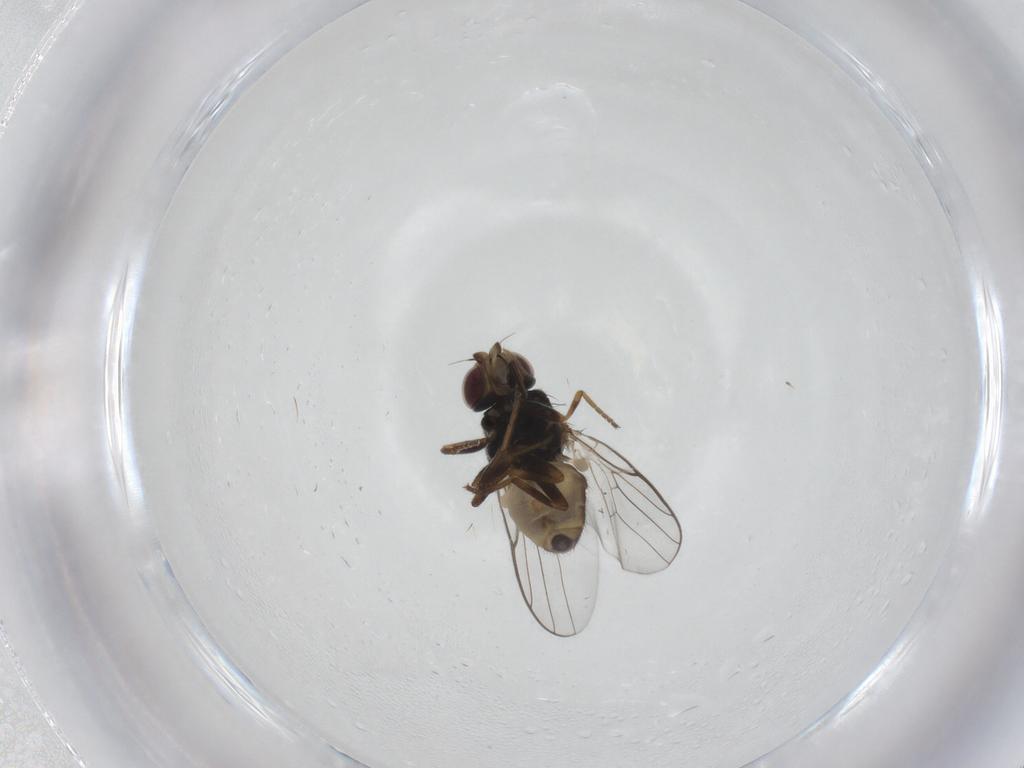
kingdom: Animalia
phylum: Arthropoda
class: Insecta
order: Diptera
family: Chloropidae
